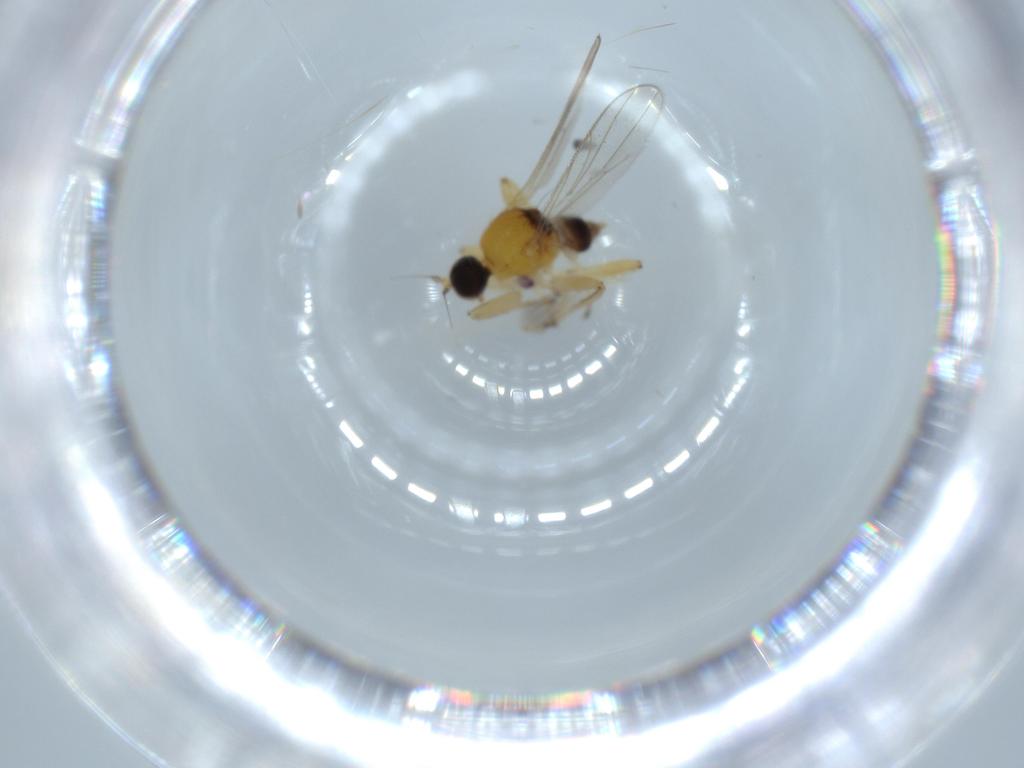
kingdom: Animalia
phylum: Arthropoda
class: Insecta
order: Diptera
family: Hybotidae
